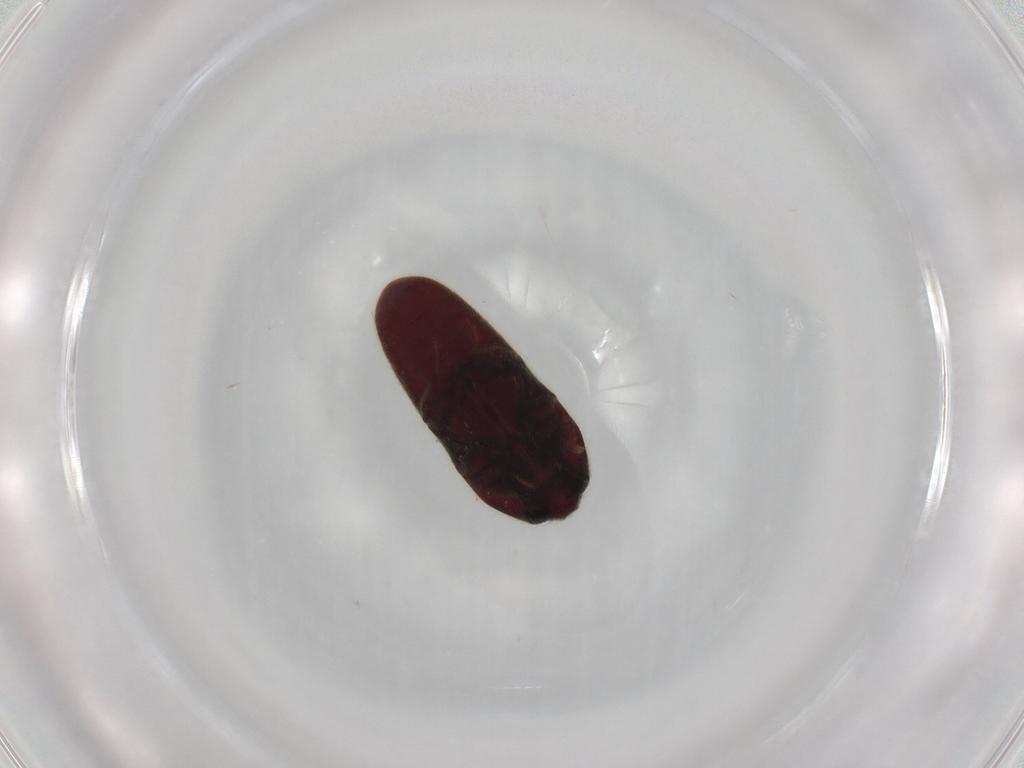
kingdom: Animalia
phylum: Arthropoda
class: Insecta
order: Coleoptera
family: Throscidae
